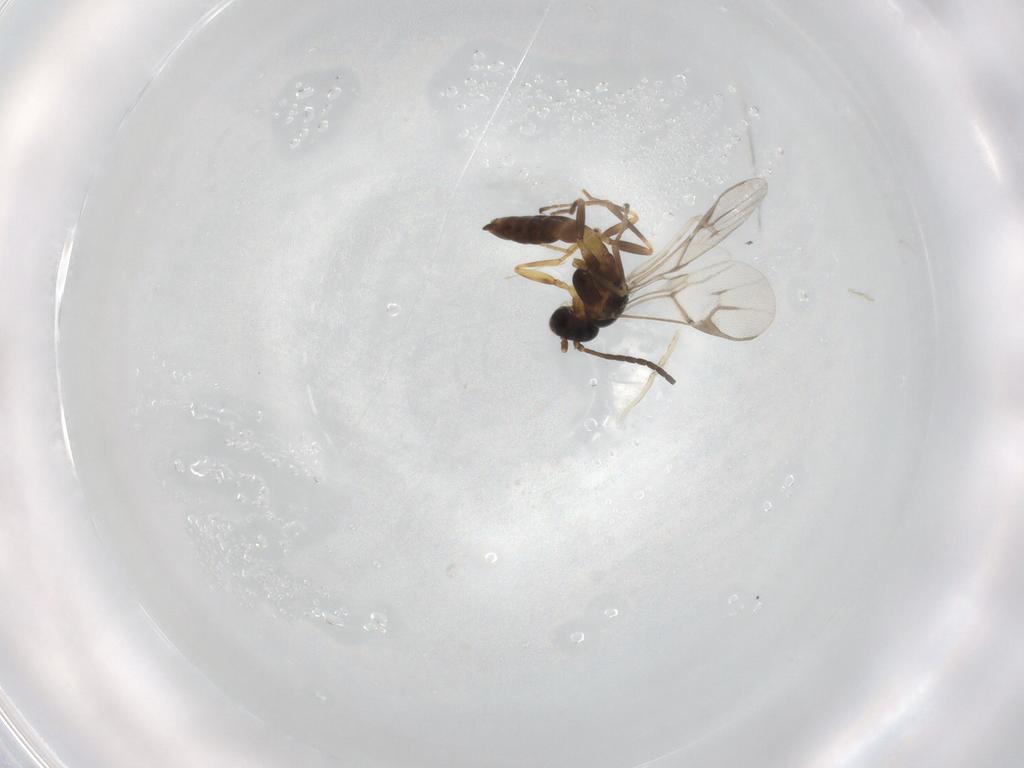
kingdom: Animalia
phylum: Arthropoda
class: Insecta
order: Hymenoptera
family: Braconidae
